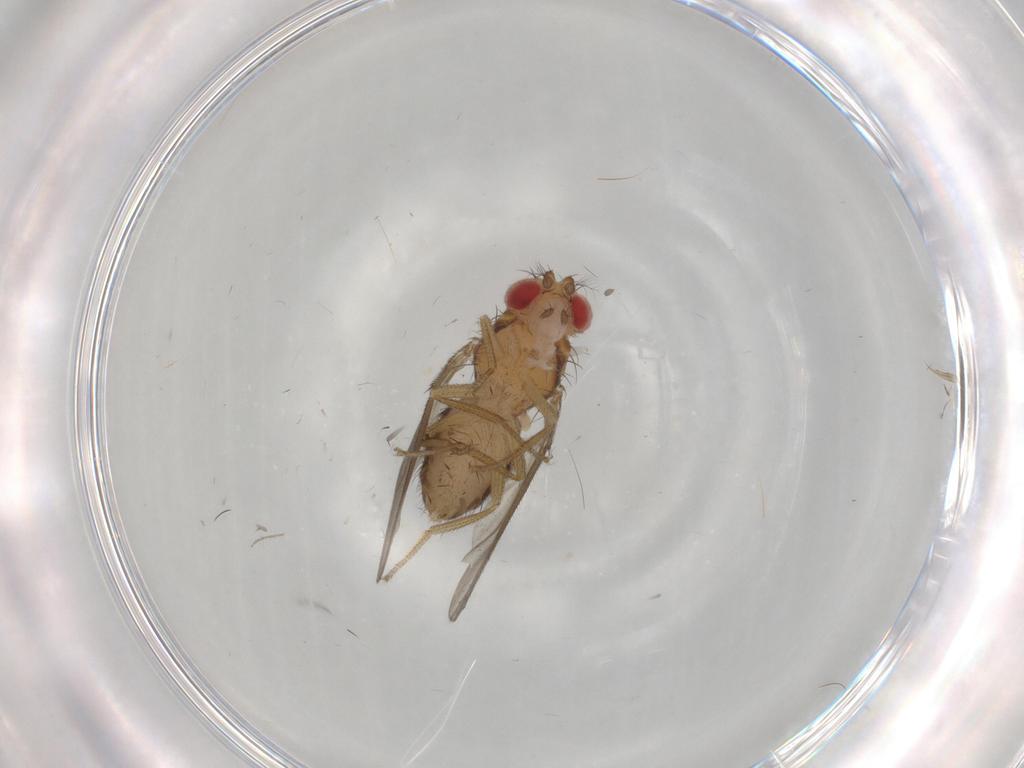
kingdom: Animalia
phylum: Arthropoda
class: Insecta
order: Diptera
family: Drosophilidae
